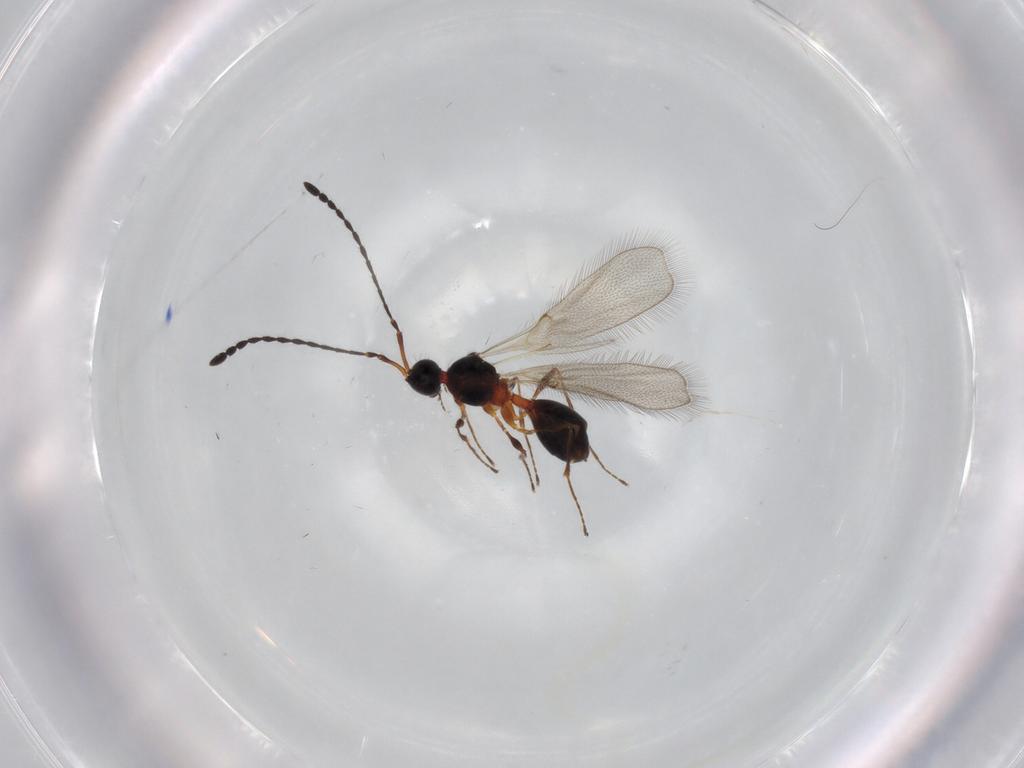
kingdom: Animalia
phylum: Arthropoda
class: Insecta
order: Hymenoptera
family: Diapriidae
